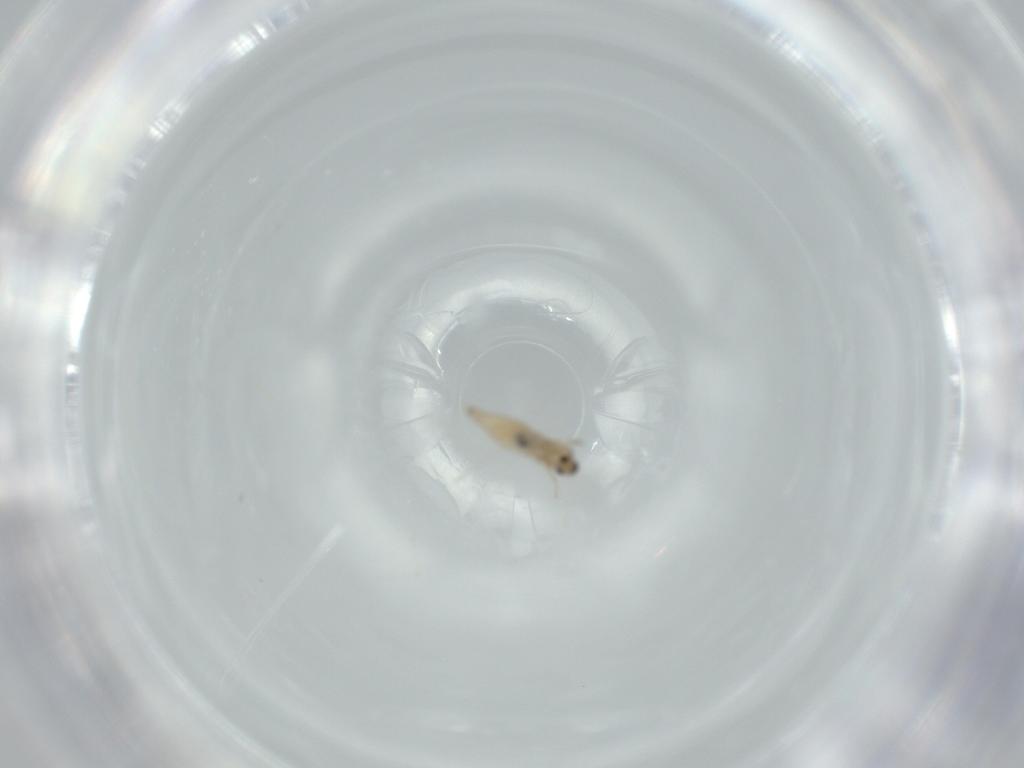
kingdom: Animalia
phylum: Arthropoda
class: Insecta
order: Diptera
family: Cecidomyiidae
